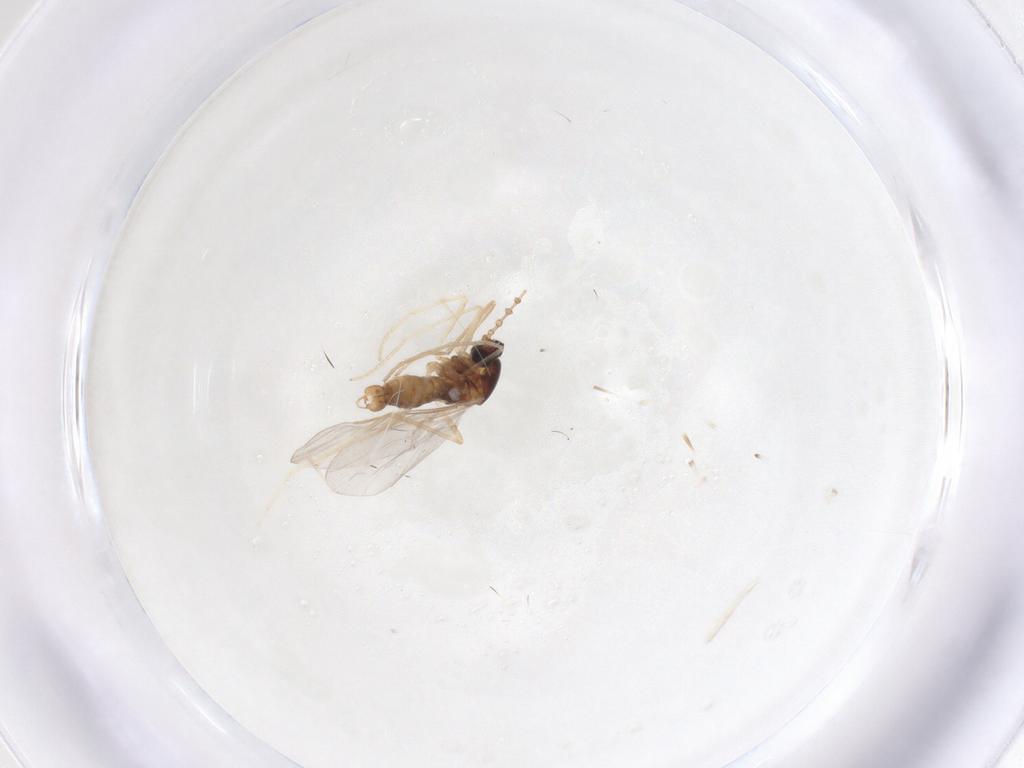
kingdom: Animalia
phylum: Arthropoda
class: Insecta
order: Diptera
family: Cecidomyiidae
